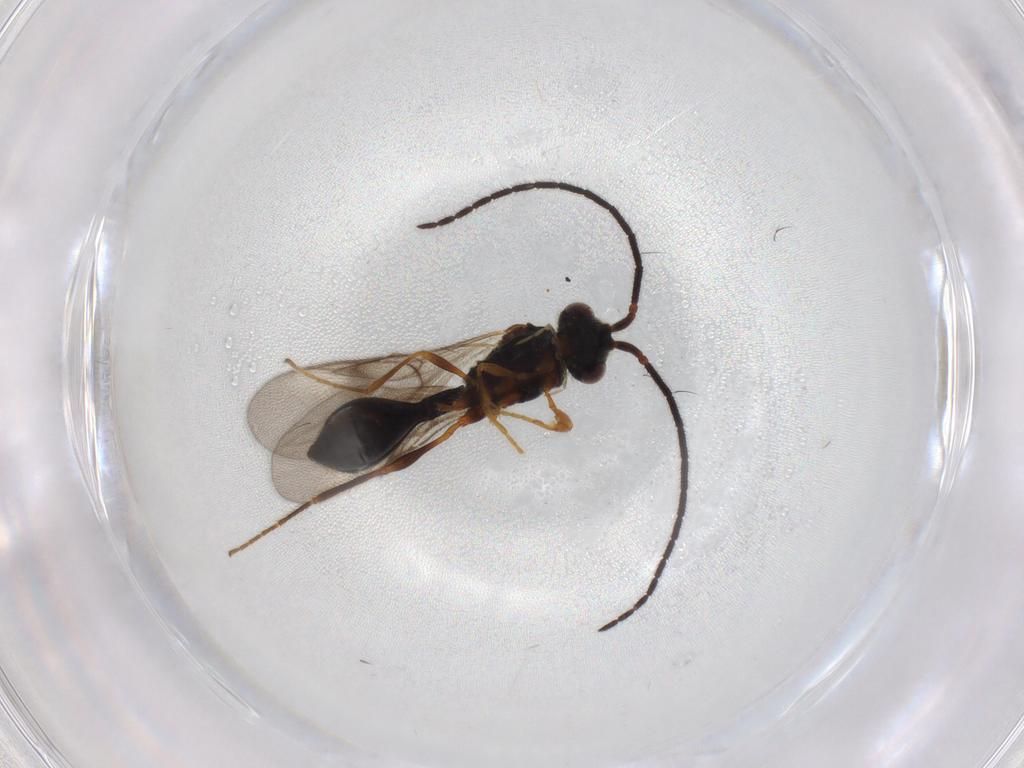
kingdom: Animalia
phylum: Arthropoda
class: Insecta
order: Hymenoptera
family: Diapriidae
